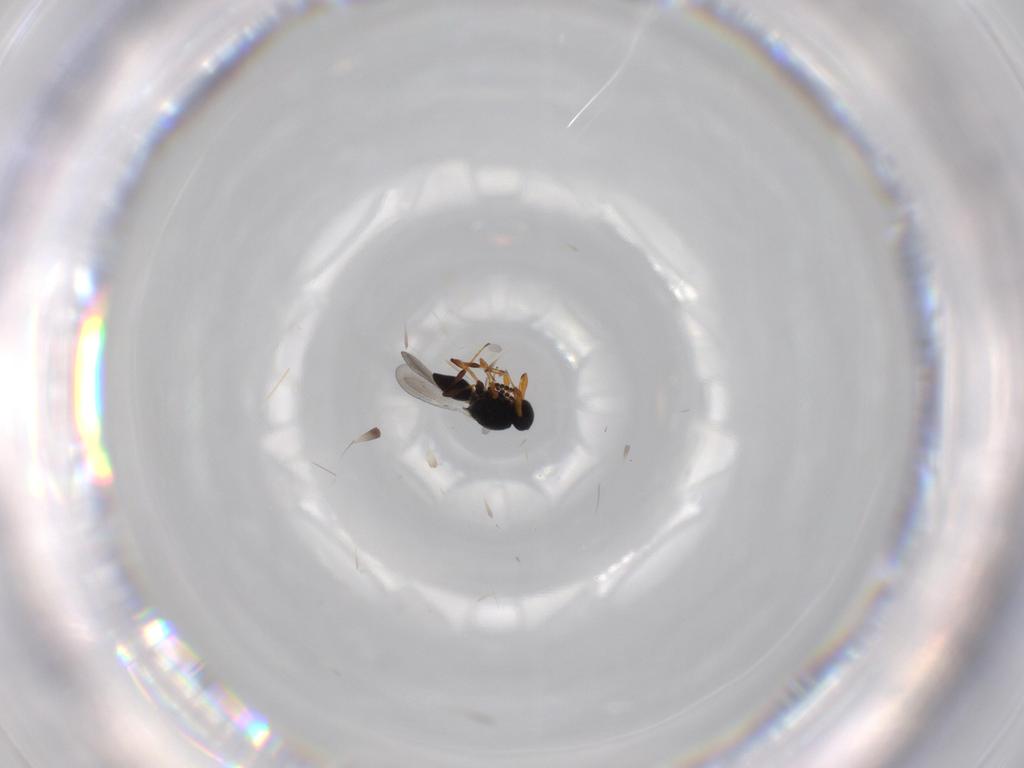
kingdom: Animalia
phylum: Arthropoda
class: Insecta
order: Hymenoptera
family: Platygastridae
